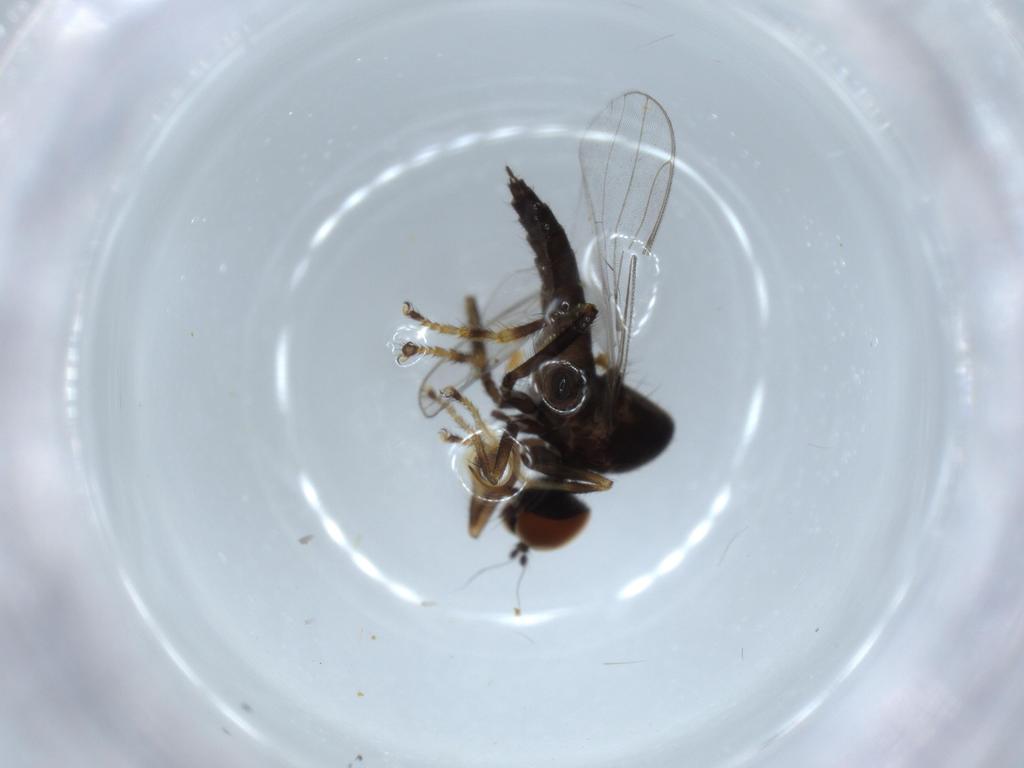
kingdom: Animalia
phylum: Arthropoda
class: Insecta
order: Diptera
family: Hybotidae
